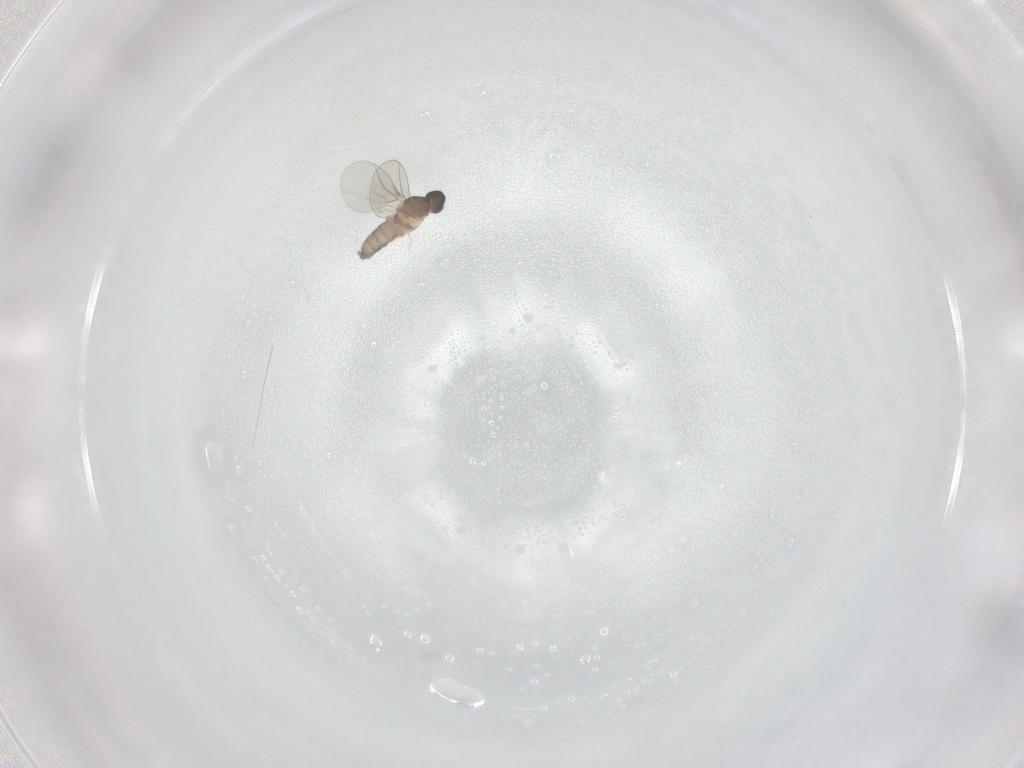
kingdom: Animalia
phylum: Arthropoda
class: Insecta
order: Diptera
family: Cecidomyiidae
